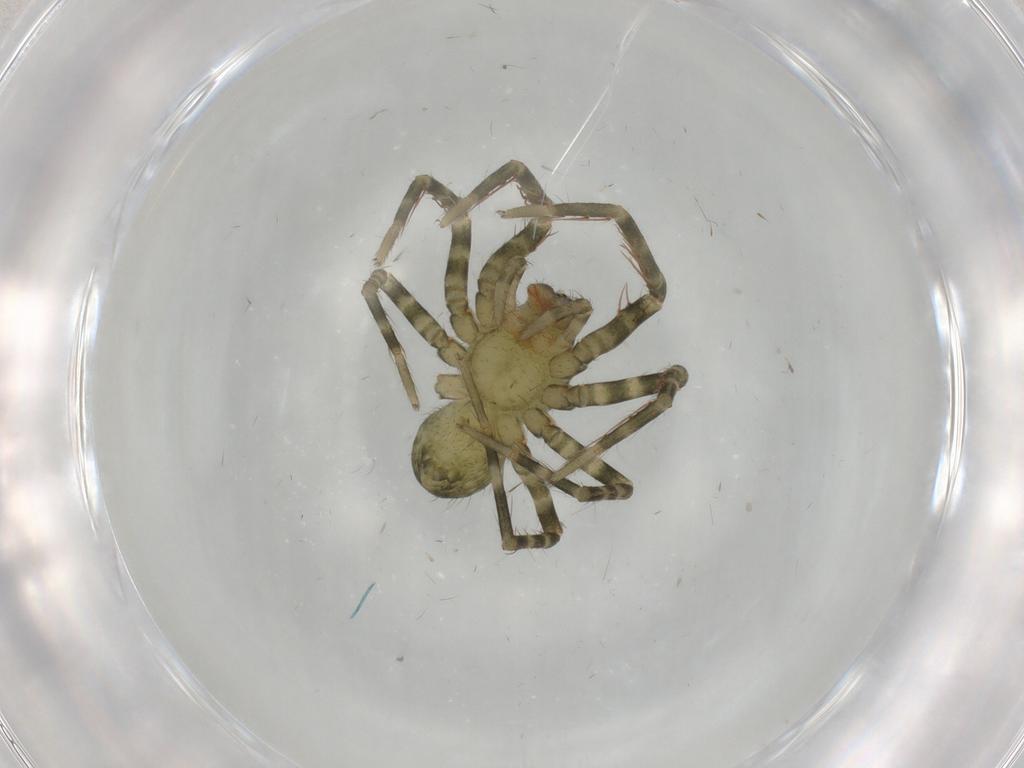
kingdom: Animalia
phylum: Arthropoda
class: Arachnida
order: Araneae
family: Ctenidae
